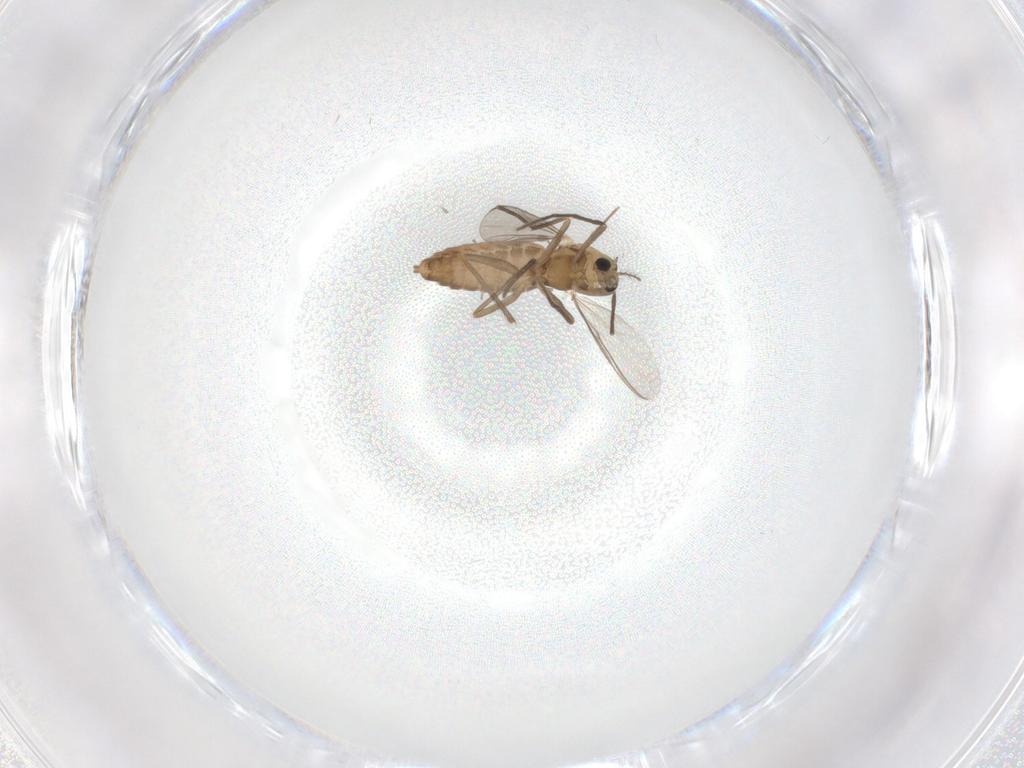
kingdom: Animalia
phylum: Arthropoda
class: Insecta
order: Diptera
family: Chironomidae
